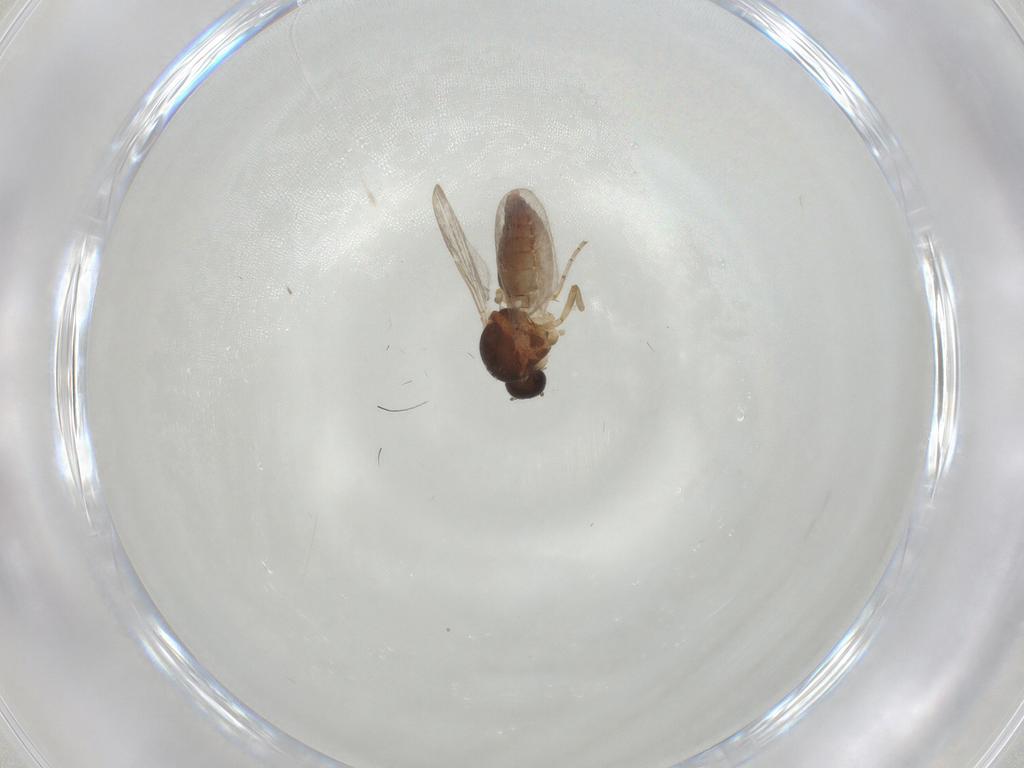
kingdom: Animalia
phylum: Arthropoda
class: Insecta
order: Diptera
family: Ceratopogonidae
